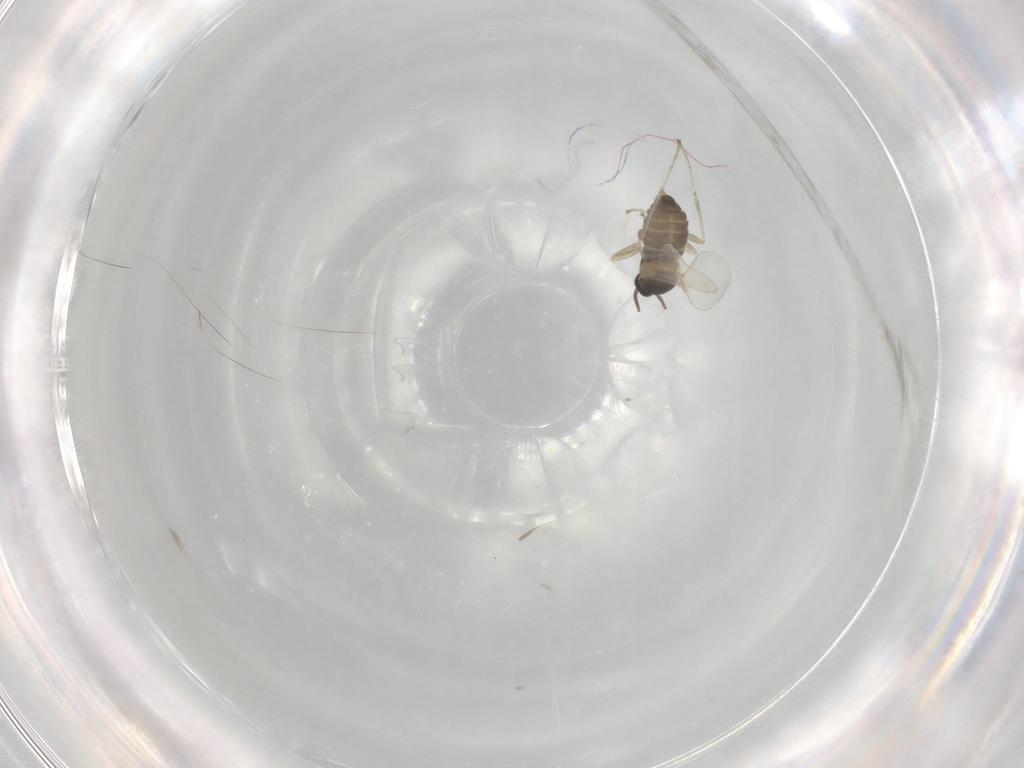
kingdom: Animalia
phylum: Arthropoda
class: Insecta
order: Diptera
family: Cecidomyiidae
